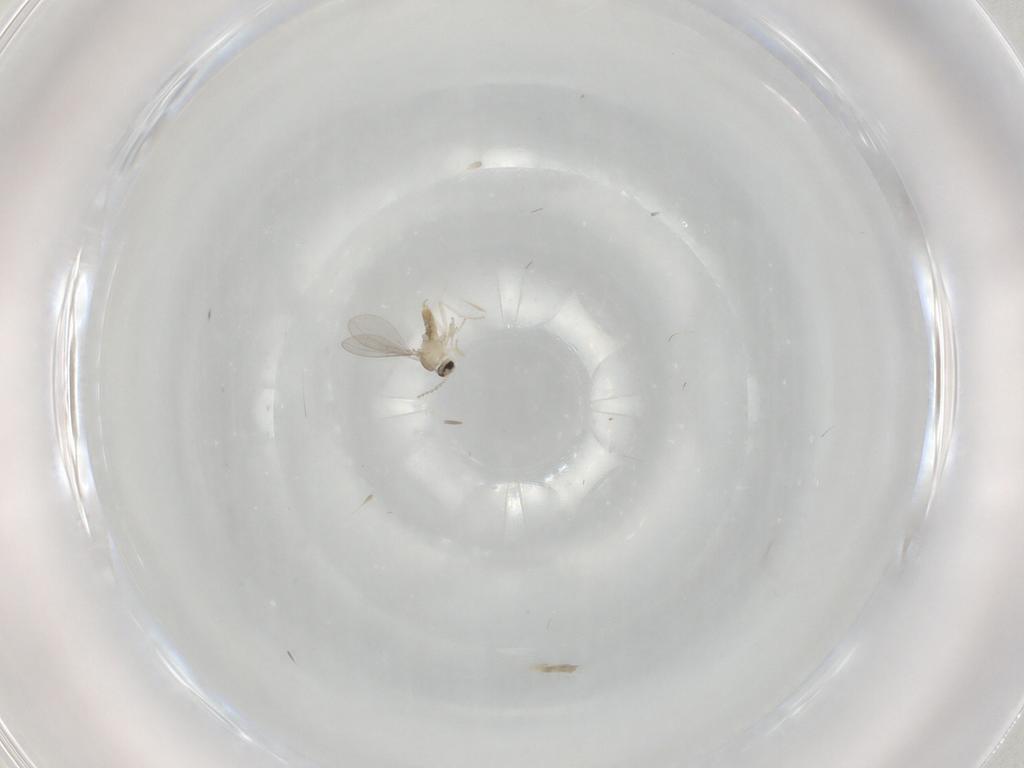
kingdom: Animalia
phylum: Arthropoda
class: Insecta
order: Diptera
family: Cecidomyiidae
